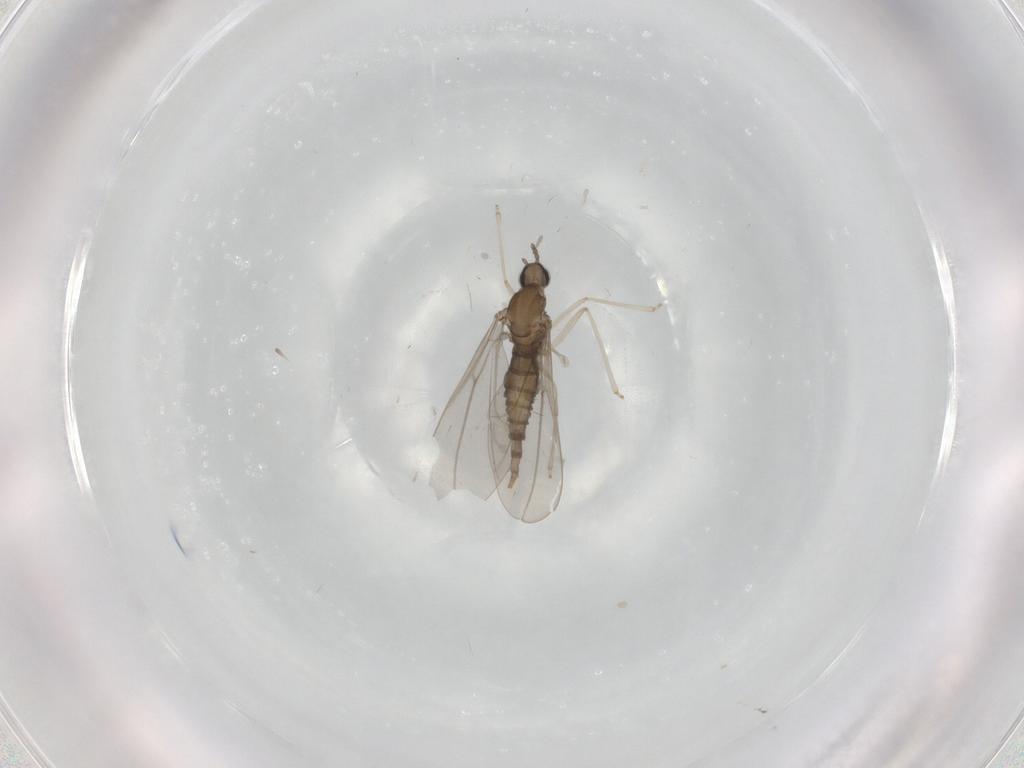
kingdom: Animalia
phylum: Arthropoda
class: Insecta
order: Diptera
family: Cecidomyiidae
